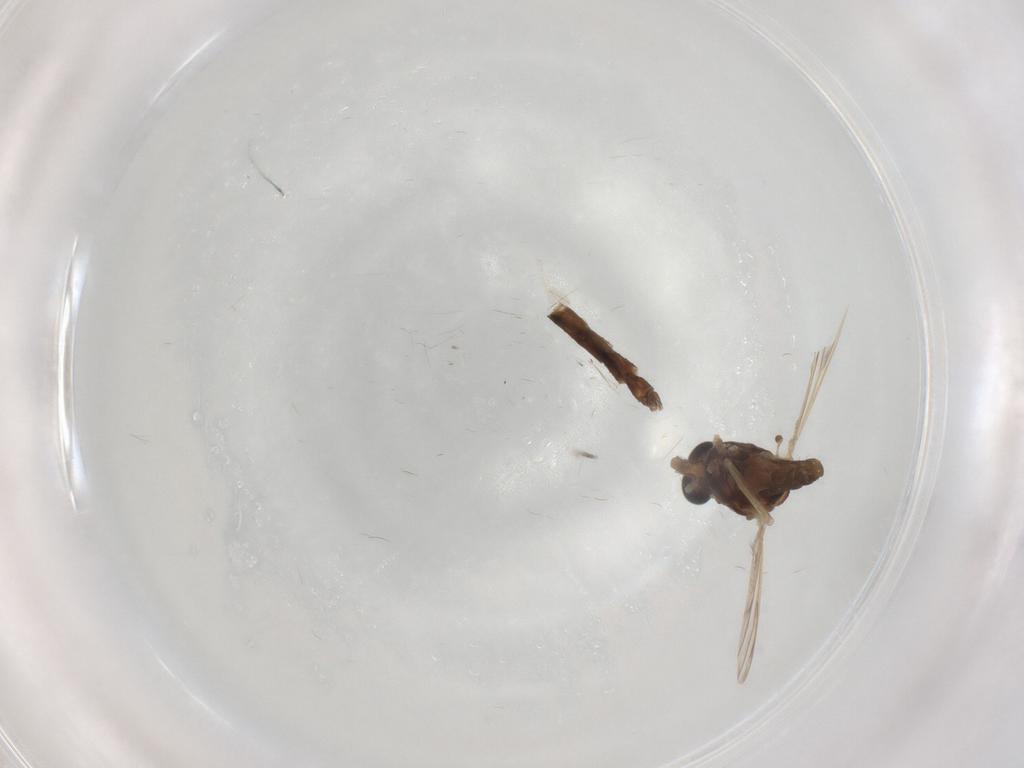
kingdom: Animalia
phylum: Arthropoda
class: Insecta
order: Diptera
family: Chironomidae
